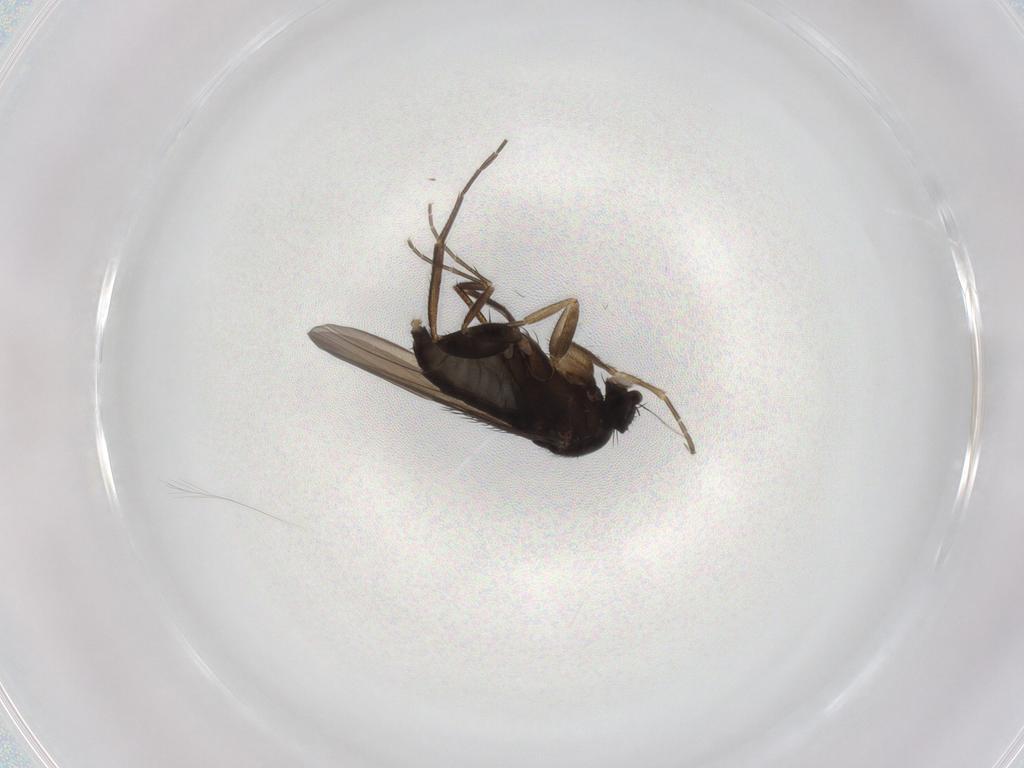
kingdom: Animalia
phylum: Arthropoda
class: Insecta
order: Diptera
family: Phoridae
